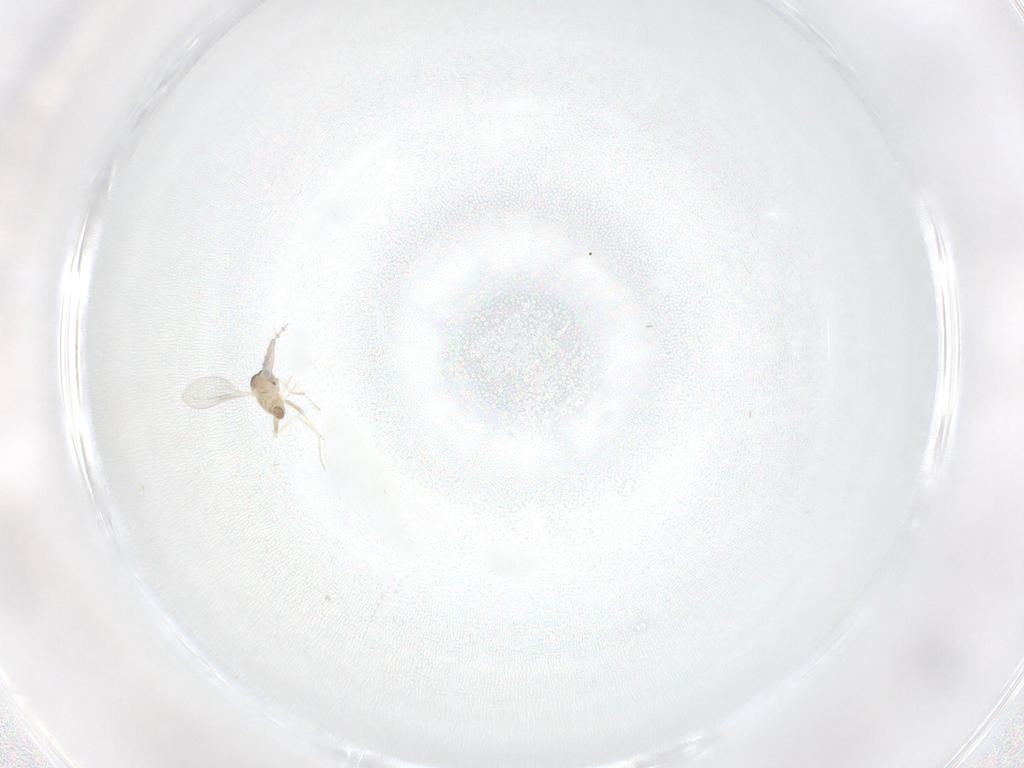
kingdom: Animalia
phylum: Arthropoda
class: Insecta
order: Diptera
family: Cecidomyiidae
